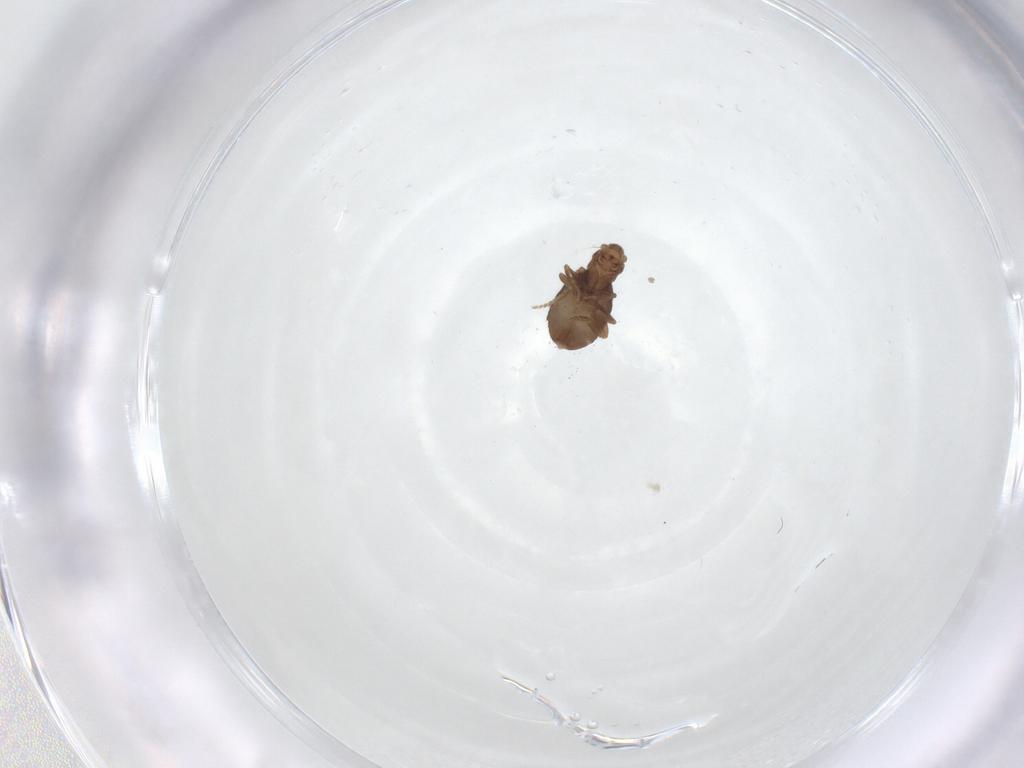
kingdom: Animalia
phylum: Arthropoda
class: Insecta
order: Diptera
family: Phoridae
